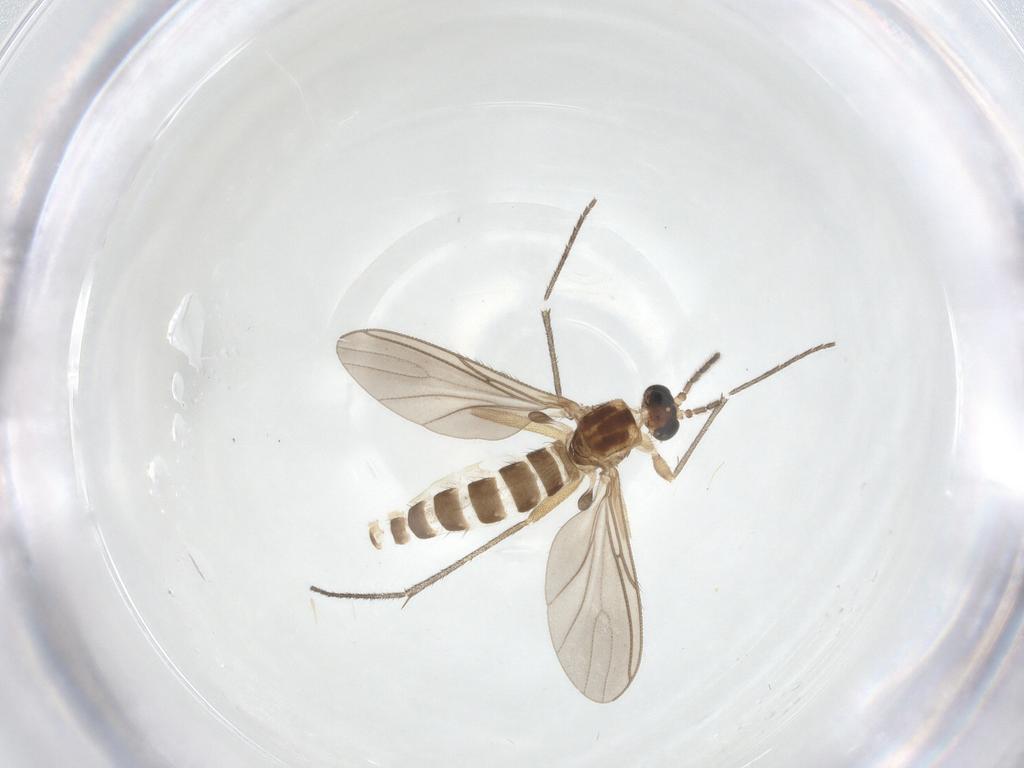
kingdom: Animalia
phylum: Arthropoda
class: Insecta
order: Diptera
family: Sciaridae
